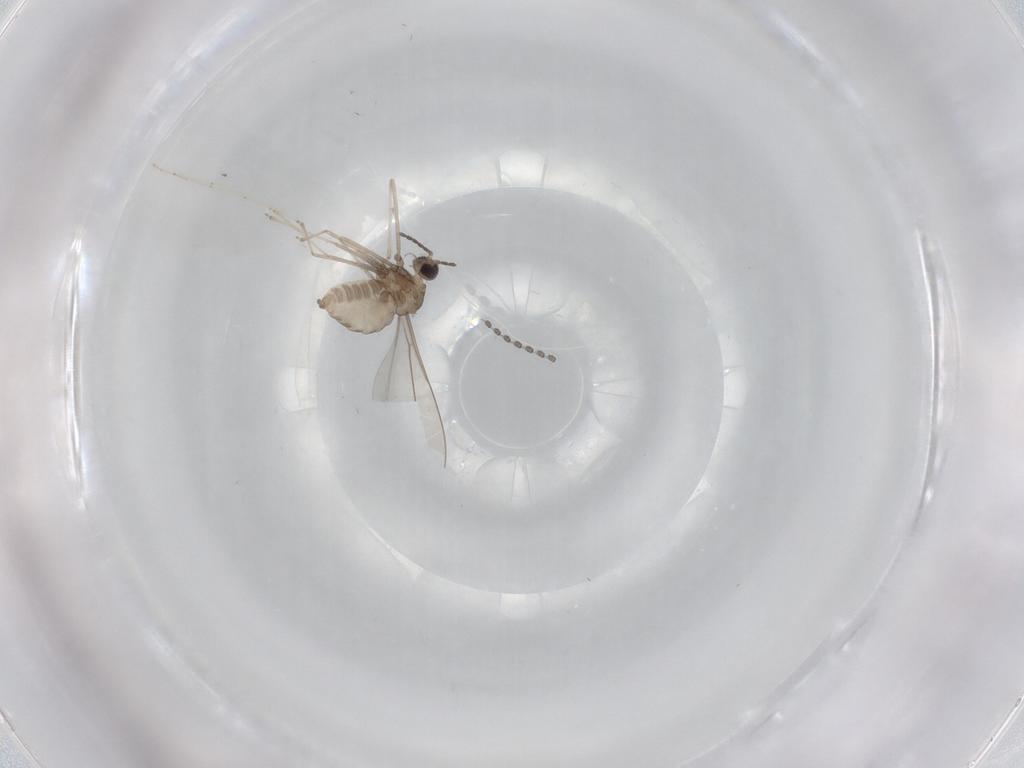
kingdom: Animalia
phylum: Arthropoda
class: Insecta
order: Diptera
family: Cecidomyiidae
